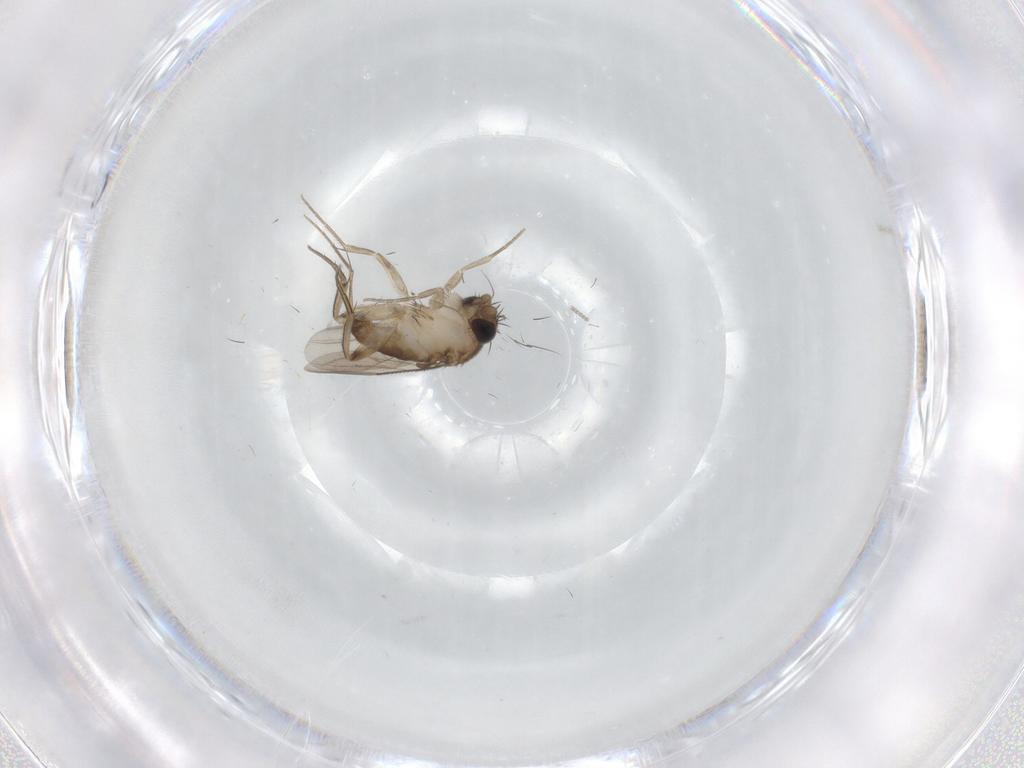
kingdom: Animalia
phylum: Arthropoda
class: Insecta
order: Diptera
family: Phoridae
